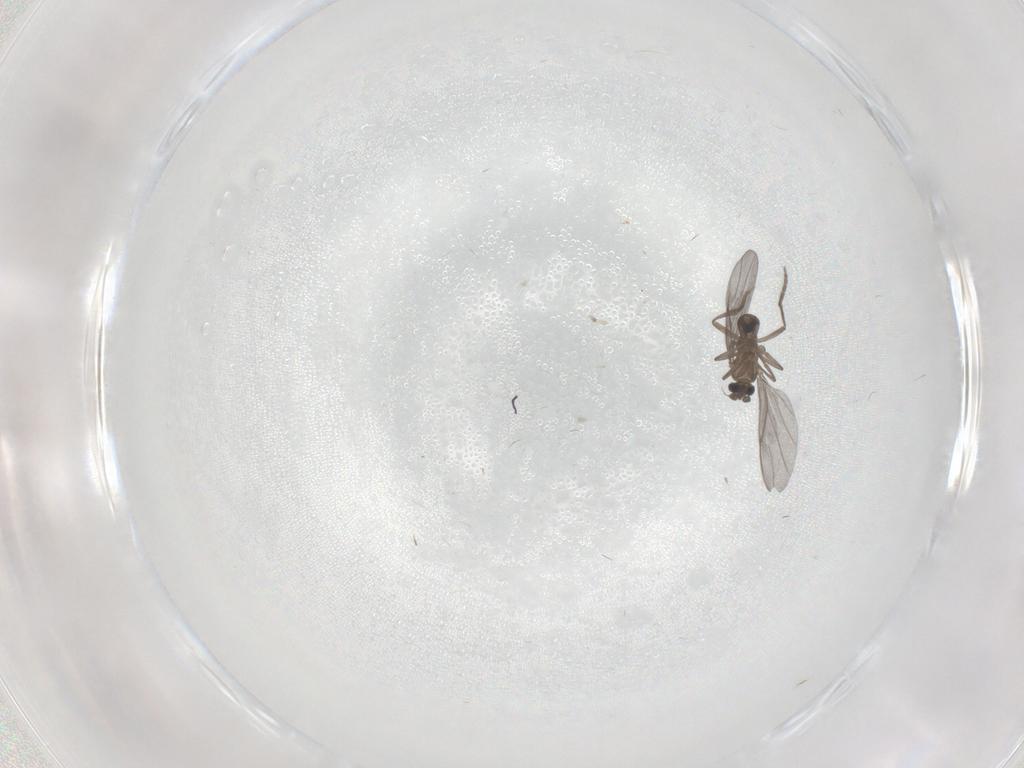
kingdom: Animalia
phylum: Arthropoda
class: Insecta
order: Diptera
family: Phoridae
